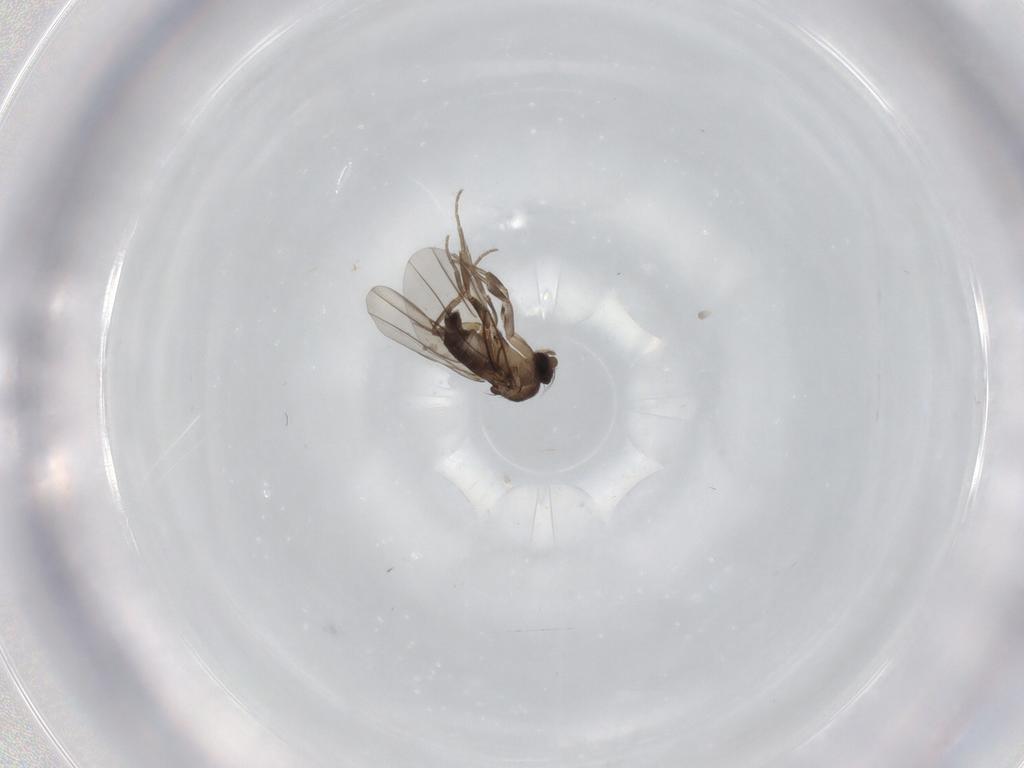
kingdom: Animalia
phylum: Arthropoda
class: Insecta
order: Diptera
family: Phoridae
